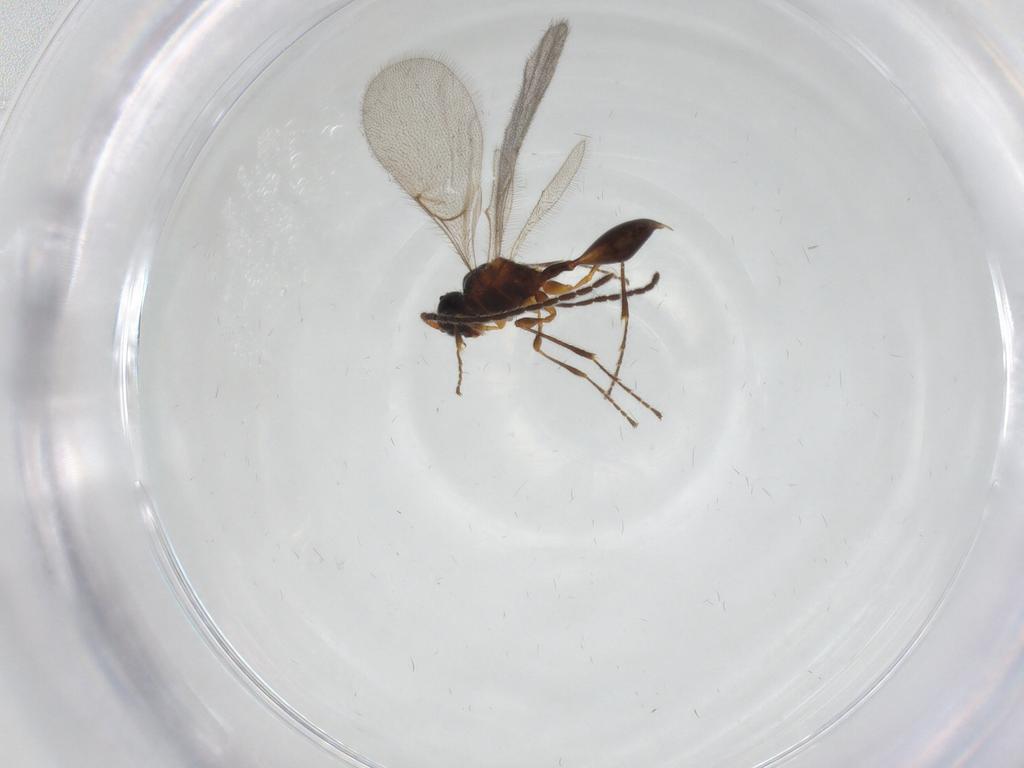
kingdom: Animalia
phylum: Arthropoda
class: Insecta
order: Hymenoptera
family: Diapriidae
